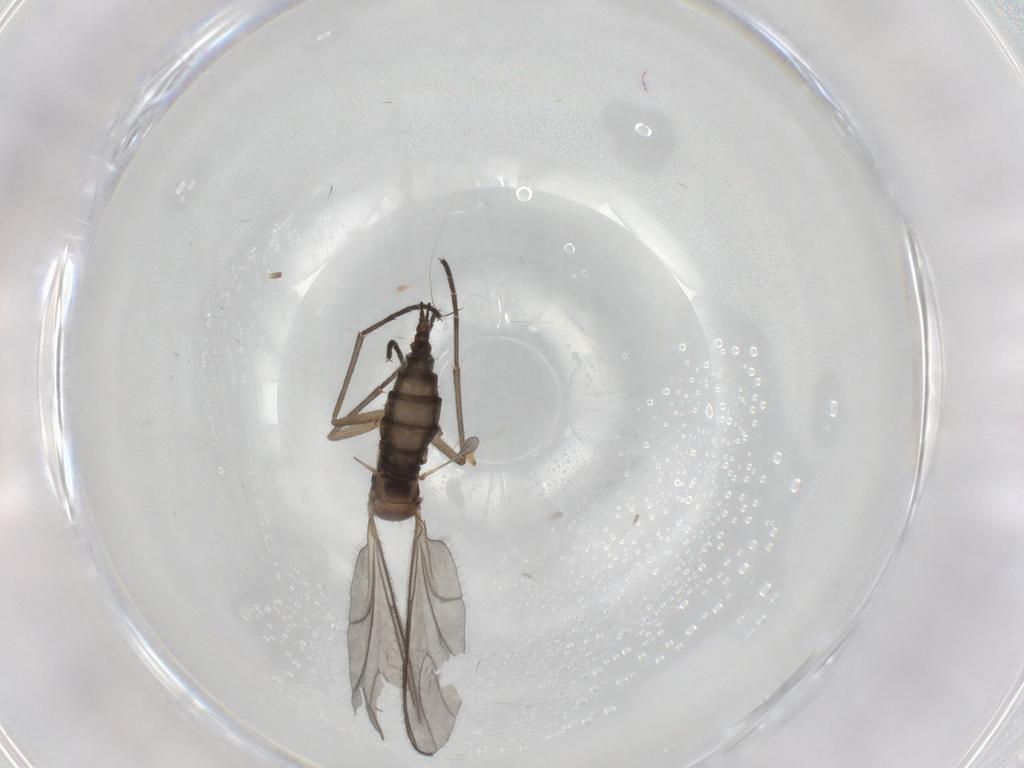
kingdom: Animalia
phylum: Arthropoda
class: Insecta
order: Diptera
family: Sciaridae
